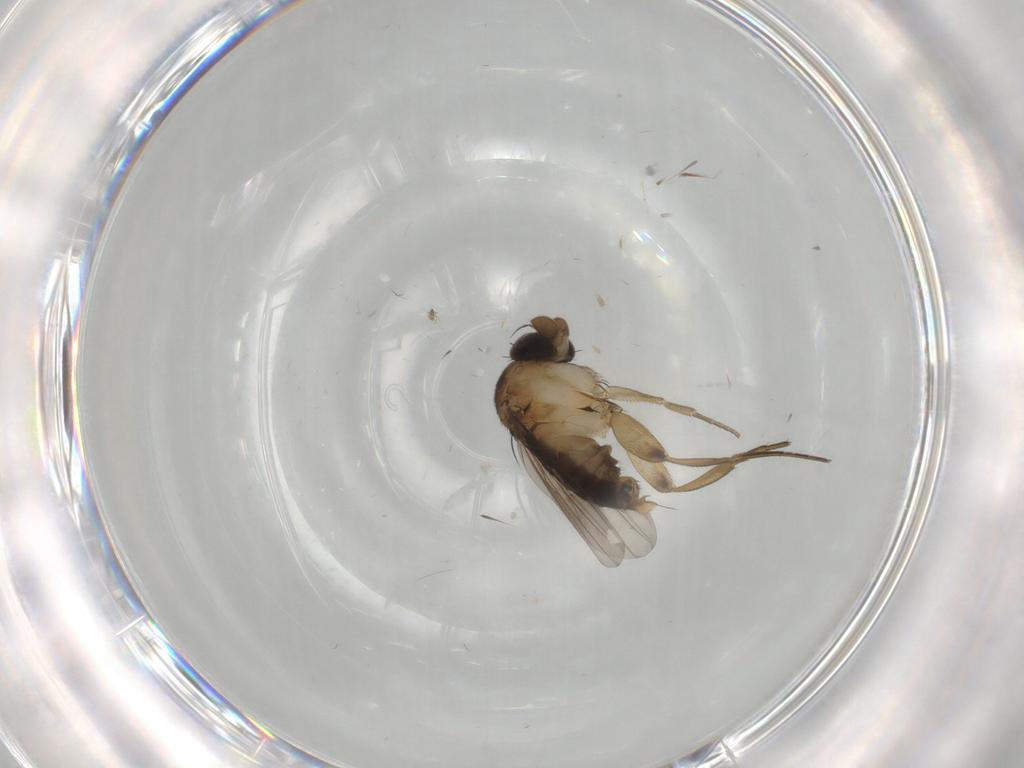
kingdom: Animalia
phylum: Arthropoda
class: Insecta
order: Diptera
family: Phoridae
